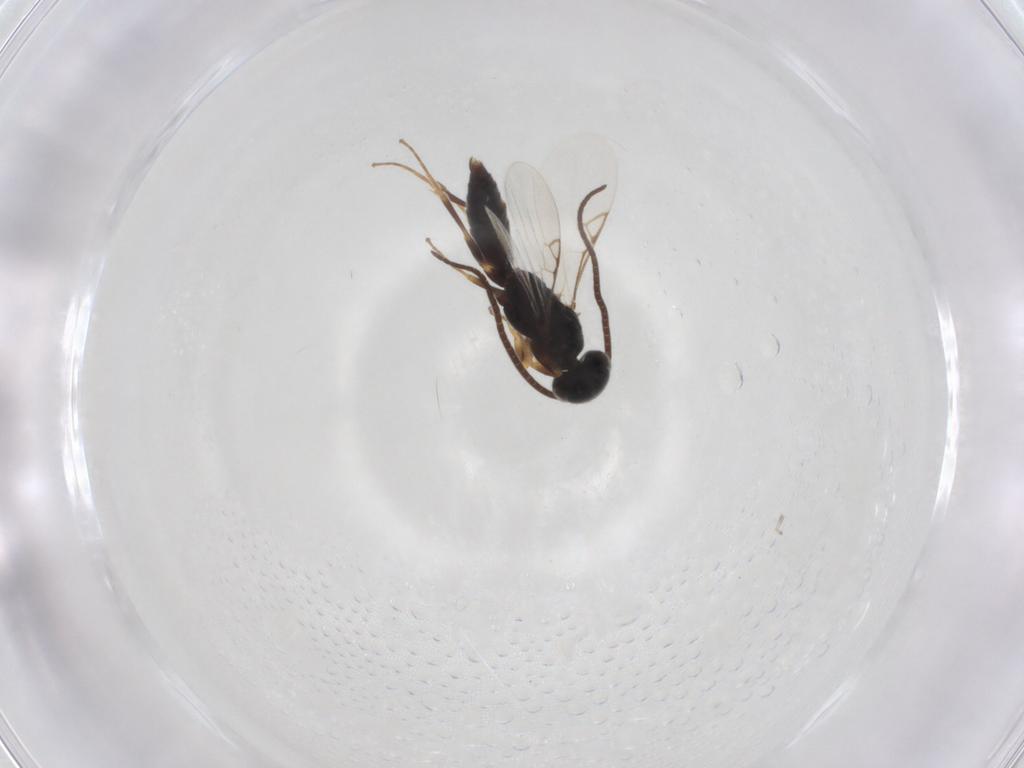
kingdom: Animalia
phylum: Arthropoda
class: Insecta
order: Hymenoptera
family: Sclerogibbidae
